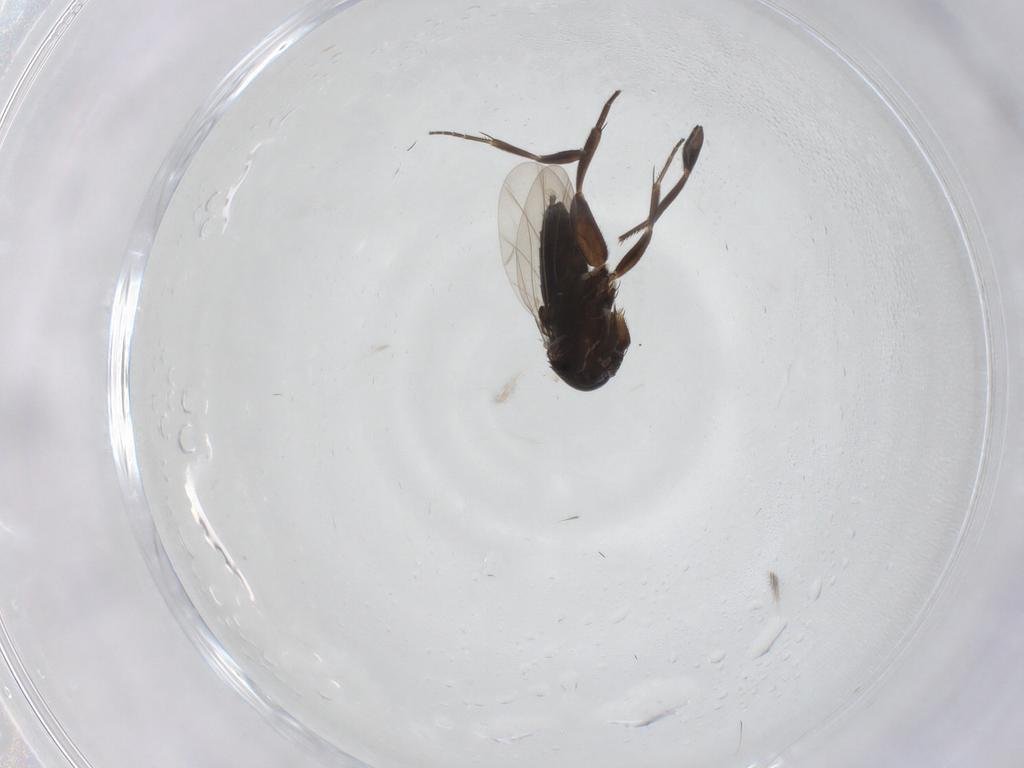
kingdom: Animalia
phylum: Arthropoda
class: Insecta
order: Diptera
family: Phoridae
